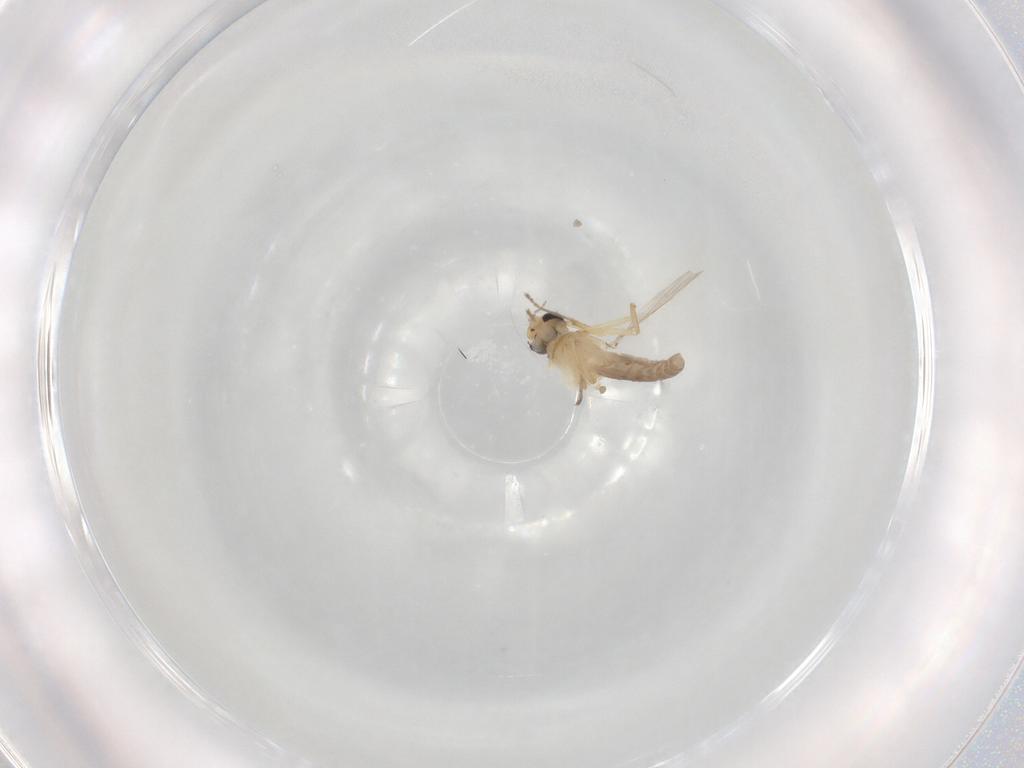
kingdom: Animalia
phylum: Arthropoda
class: Insecta
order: Diptera
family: Ceratopogonidae
